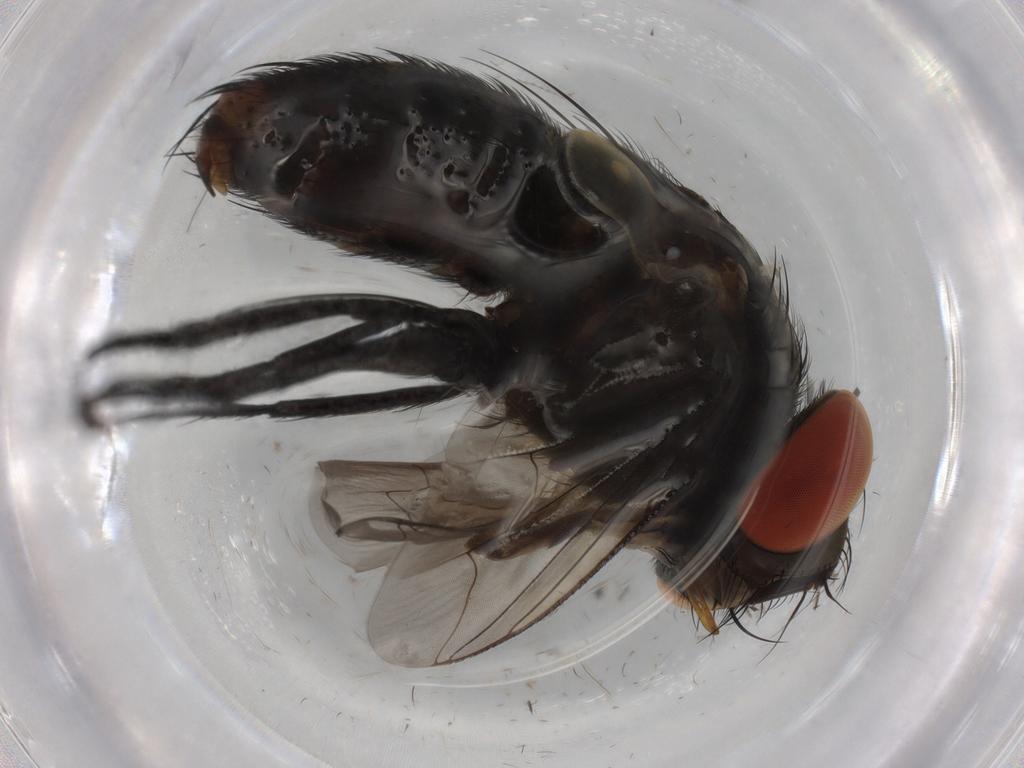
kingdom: Animalia
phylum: Arthropoda
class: Insecta
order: Diptera
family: Sarcophagidae
